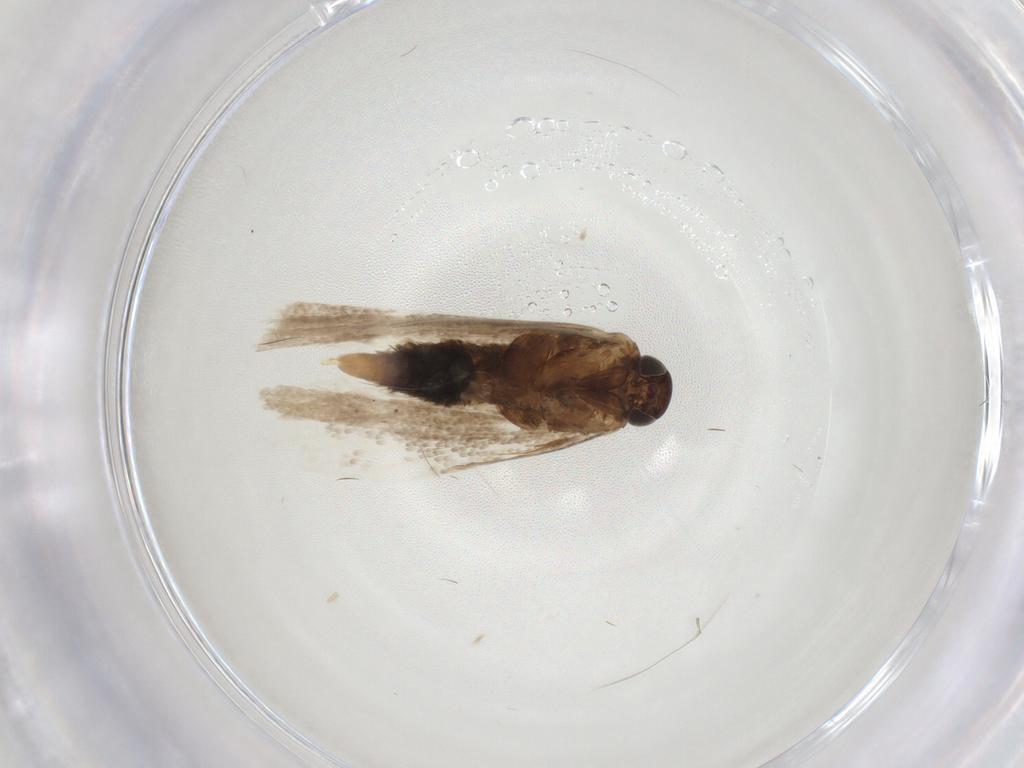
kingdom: Animalia
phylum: Arthropoda
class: Insecta
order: Lepidoptera
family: Gelechiidae
